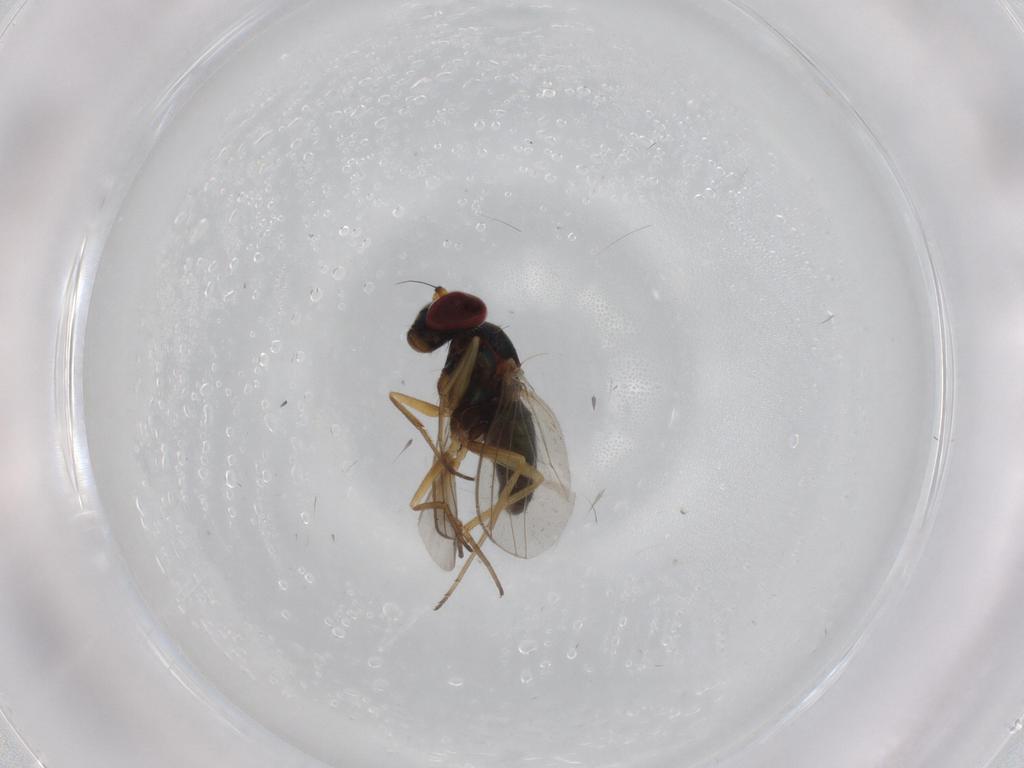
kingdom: Animalia
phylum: Arthropoda
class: Insecta
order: Diptera
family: Dolichopodidae
